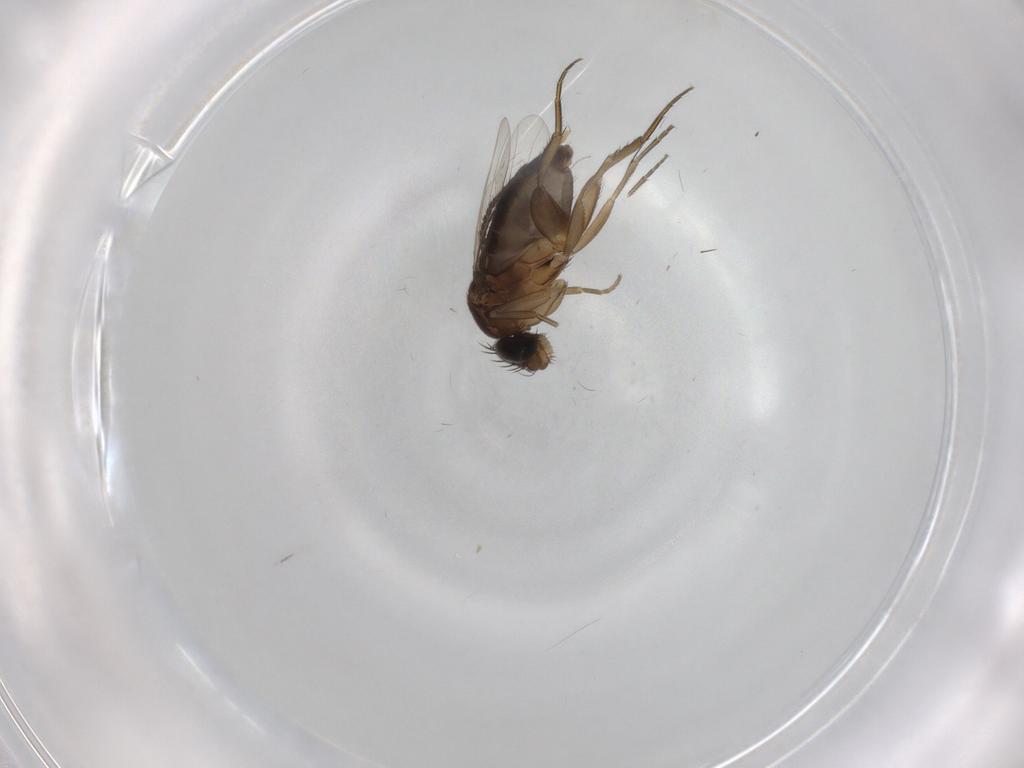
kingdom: Animalia
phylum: Arthropoda
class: Insecta
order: Diptera
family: Phoridae
